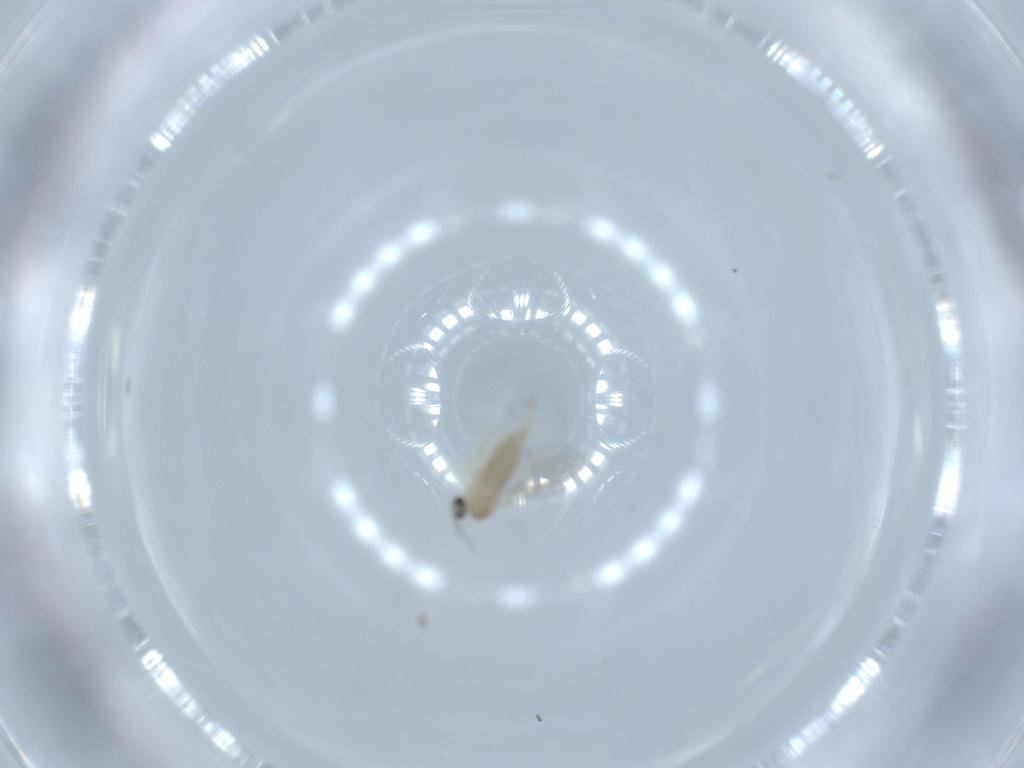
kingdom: Animalia
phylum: Arthropoda
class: Insecta
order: Diptera
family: Cecidomyiidae
